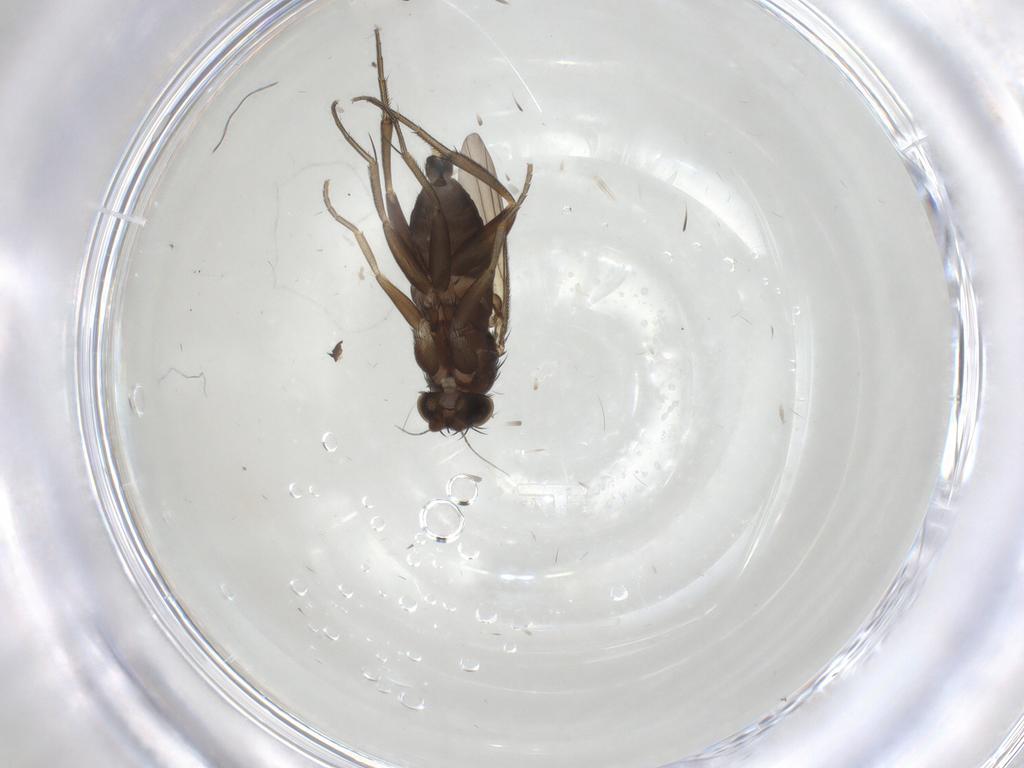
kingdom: Animalia
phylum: Arthropoda
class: Insecta
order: Diptera
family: Phoridae
